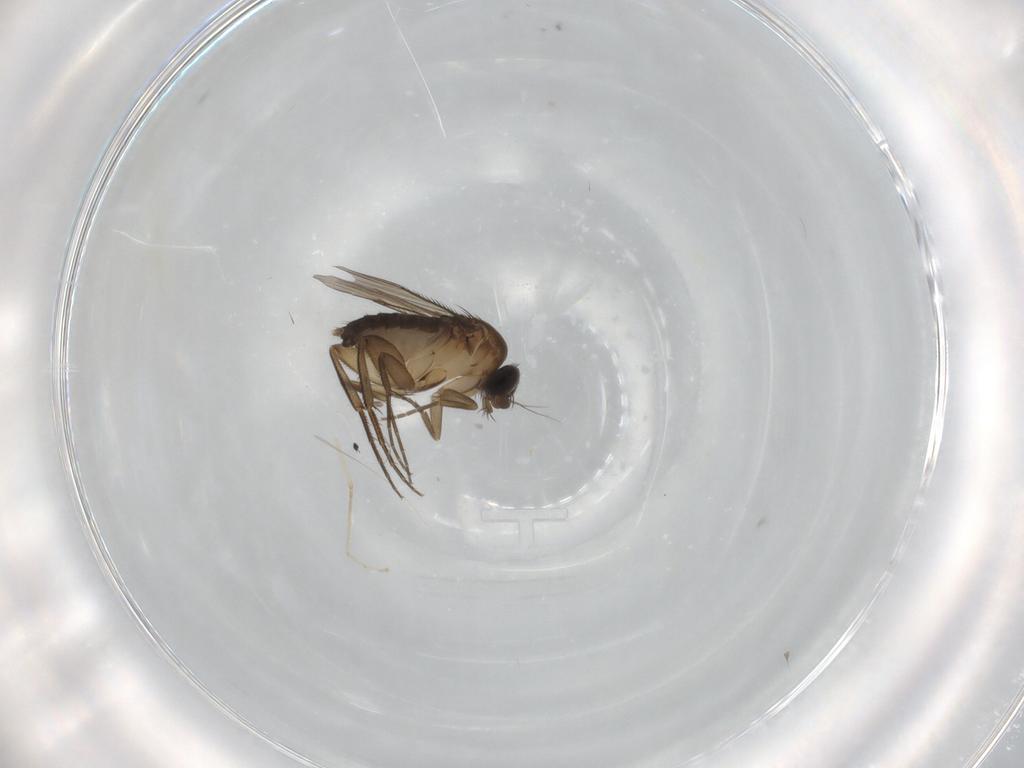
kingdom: Animalia
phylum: Arthropoda
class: Insecta
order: Diptera
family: Phoridae
